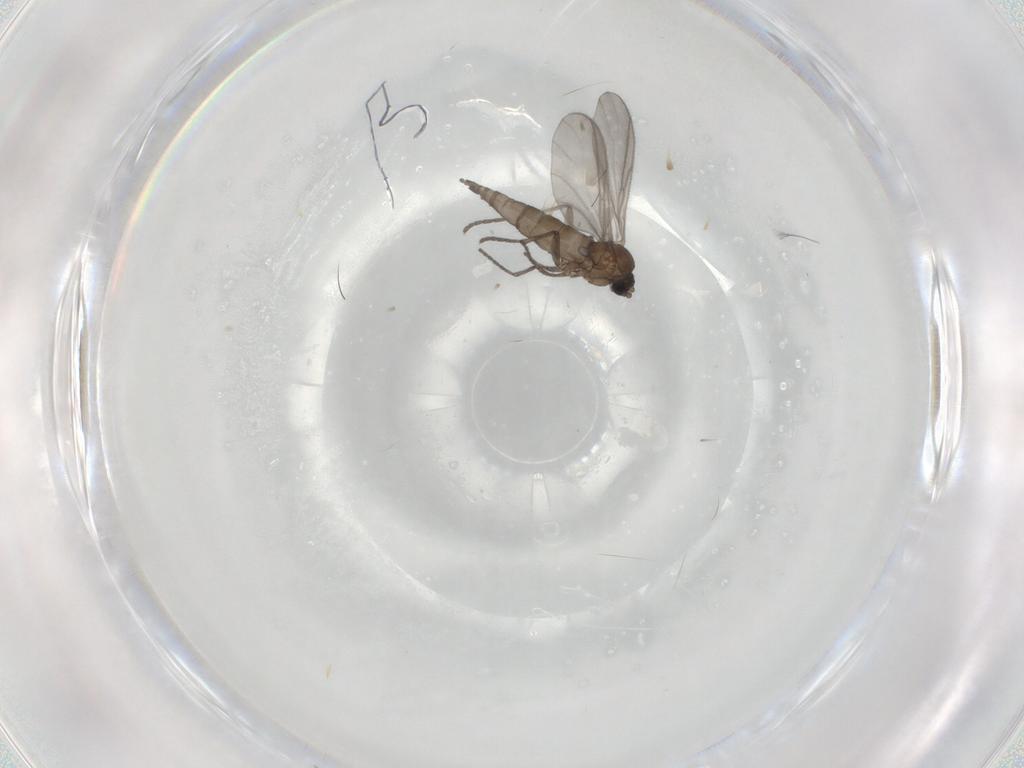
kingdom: Animalia
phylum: Arthropoda
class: Insecta
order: Diptera
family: Sciaridae
